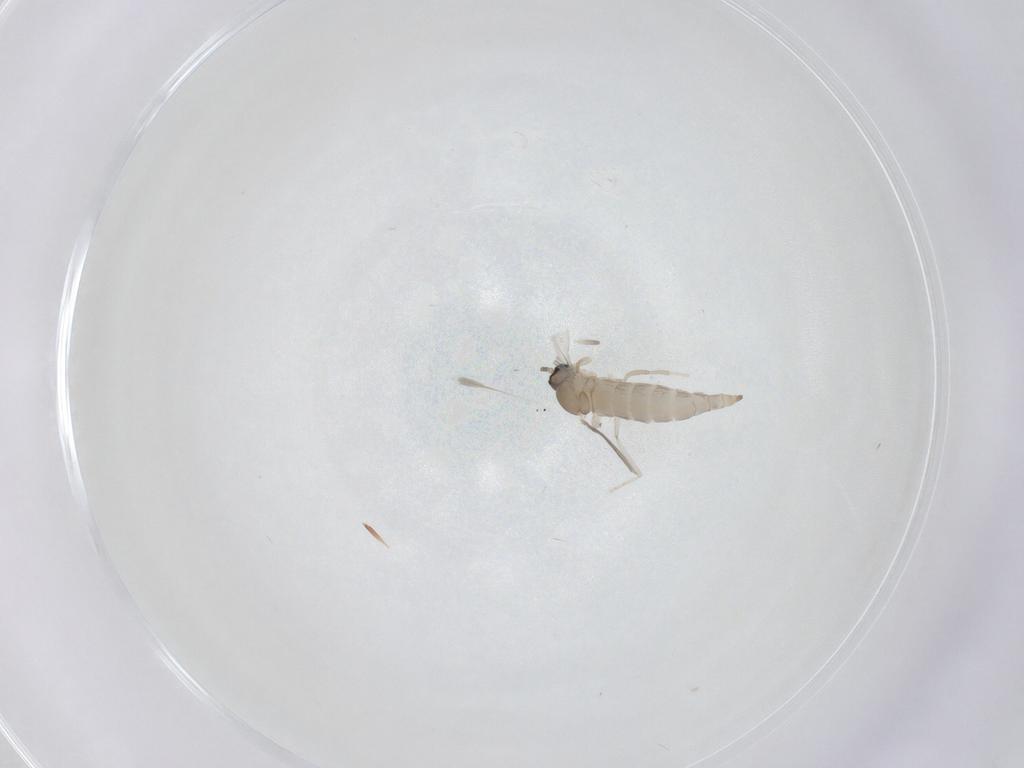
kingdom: Animalia
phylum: Arthropoda
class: Insecta
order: Diptera
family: Cecidomyiidae
